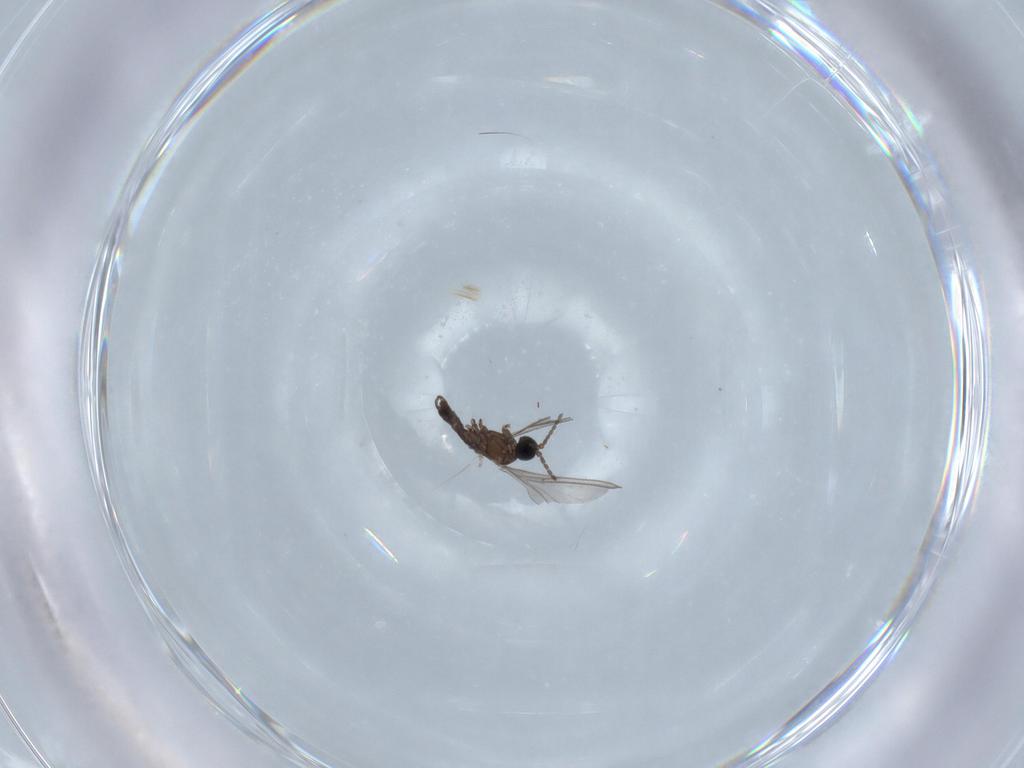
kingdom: Animalia
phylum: Arthropoda
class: Insecta
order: Diptera
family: Sciaridae
